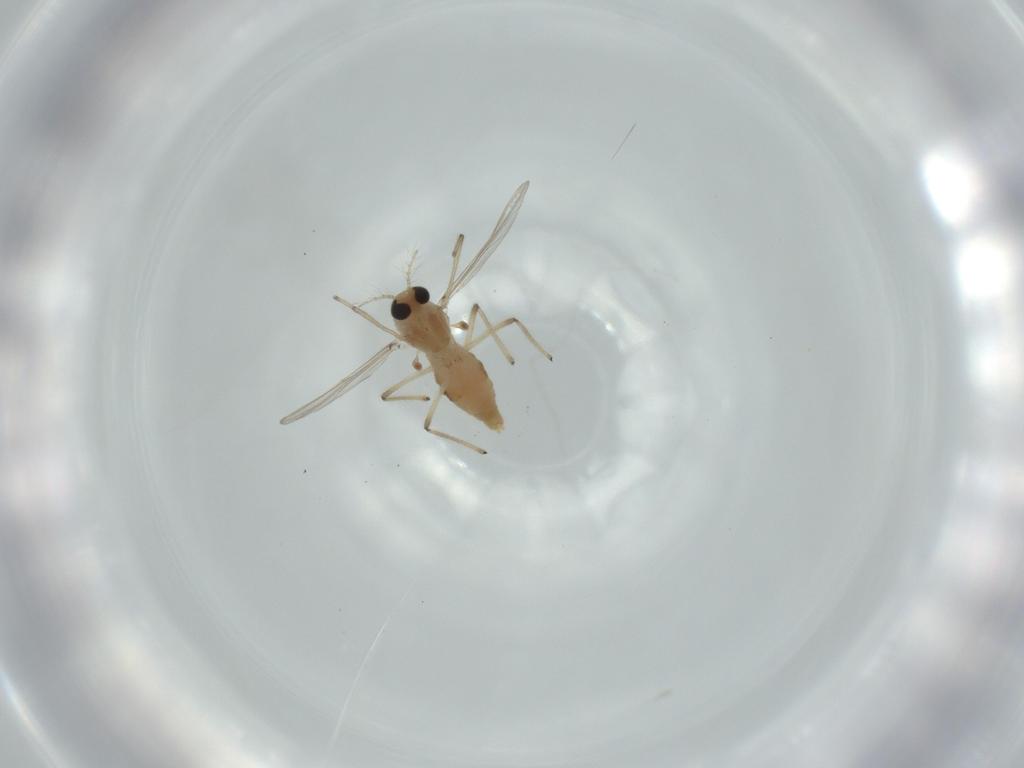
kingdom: Animalia
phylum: Arthropoda
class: Insecta
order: Diptera
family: Chironomidae
